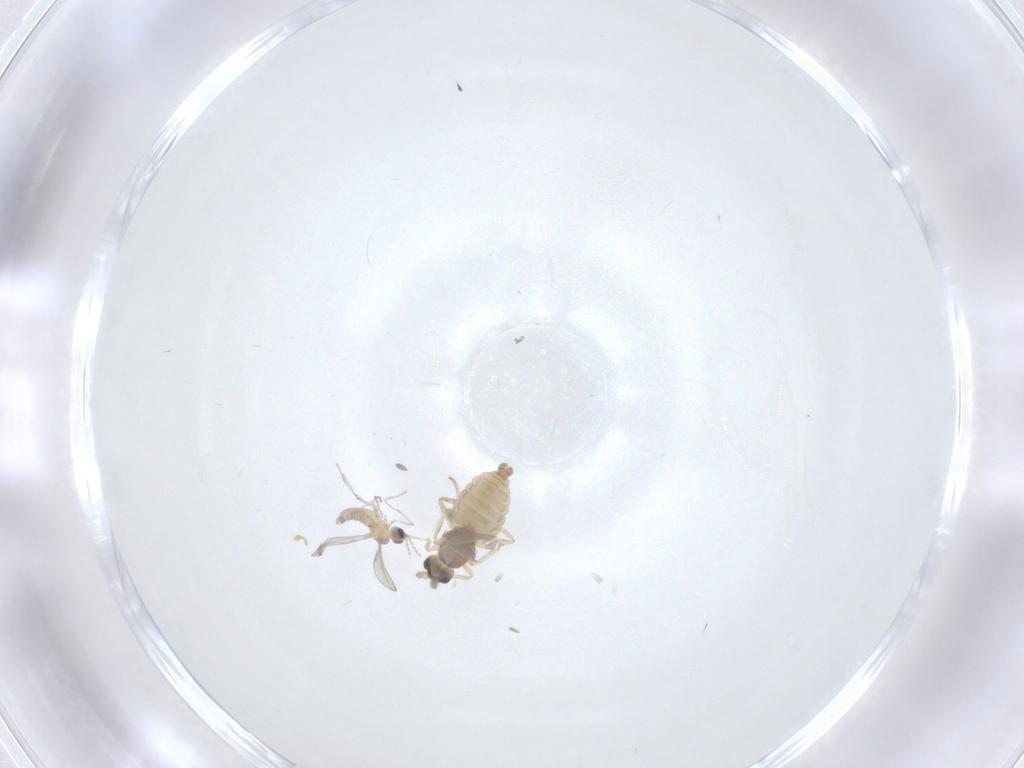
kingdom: Animalia
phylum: Arthropoda
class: Insecta
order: Diptera
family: Cecidomyiidae
